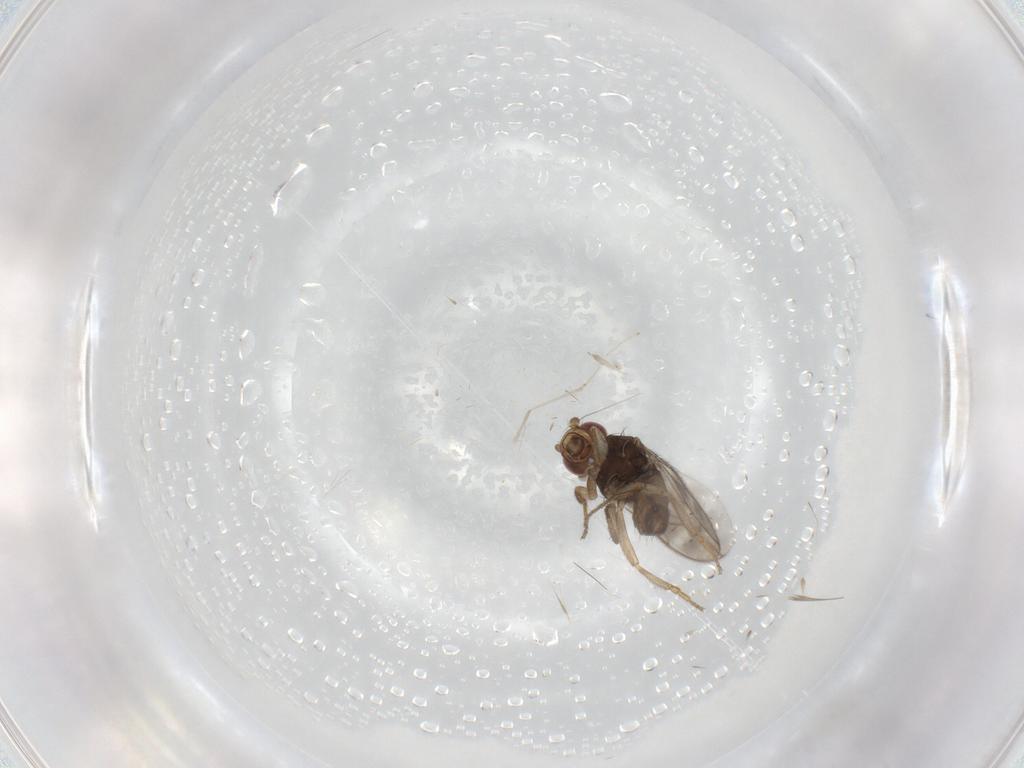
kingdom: Animalia
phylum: Arthropoda
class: Insecta
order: Diptera
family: Sphaeroceridae
